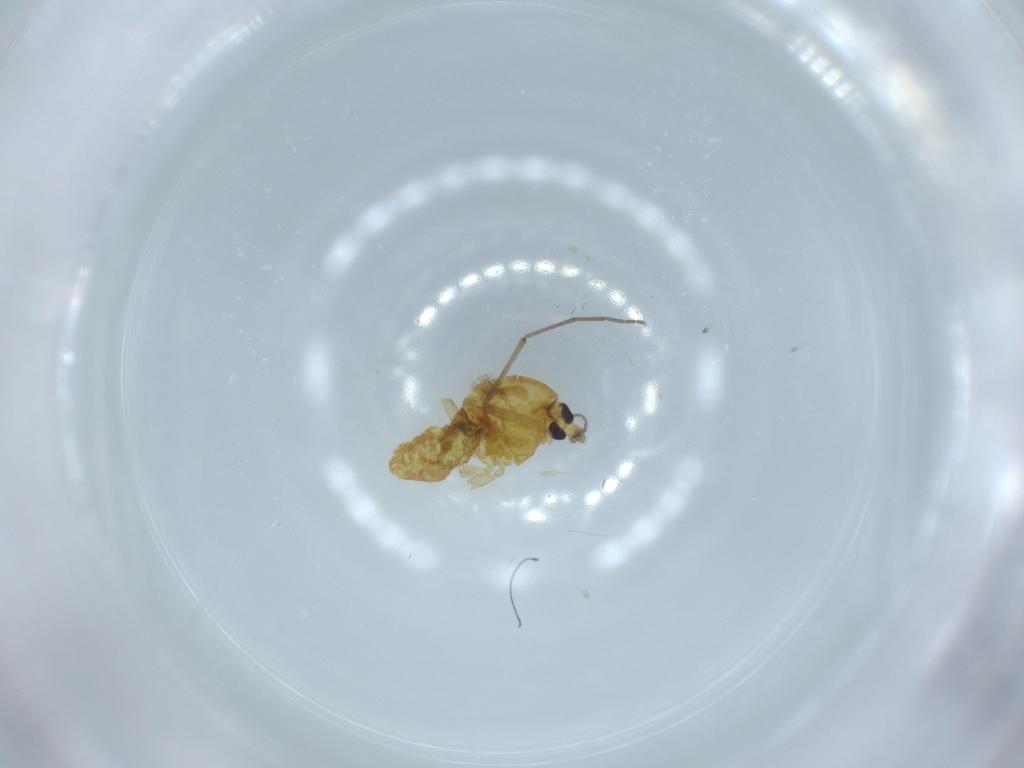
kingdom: Animalia
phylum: Arthropoda
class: Insecta
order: Diptera
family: Chironomidae
